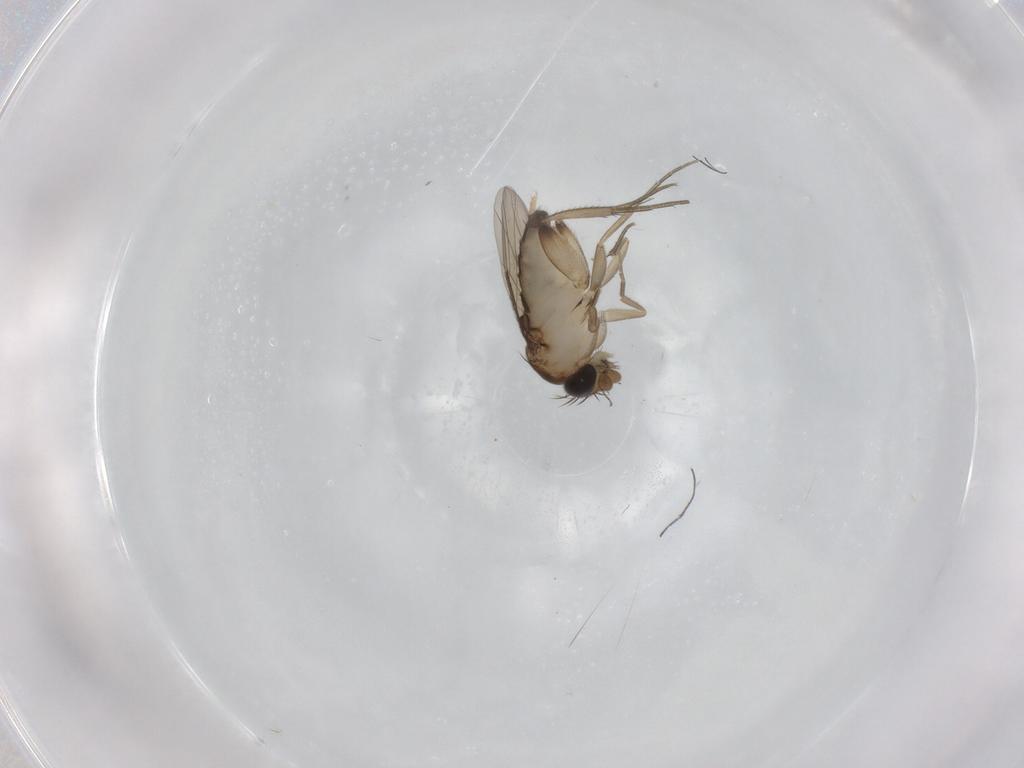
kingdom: Animalia
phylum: Arthropoda
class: Insecta
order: Diptera
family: Phoridae
